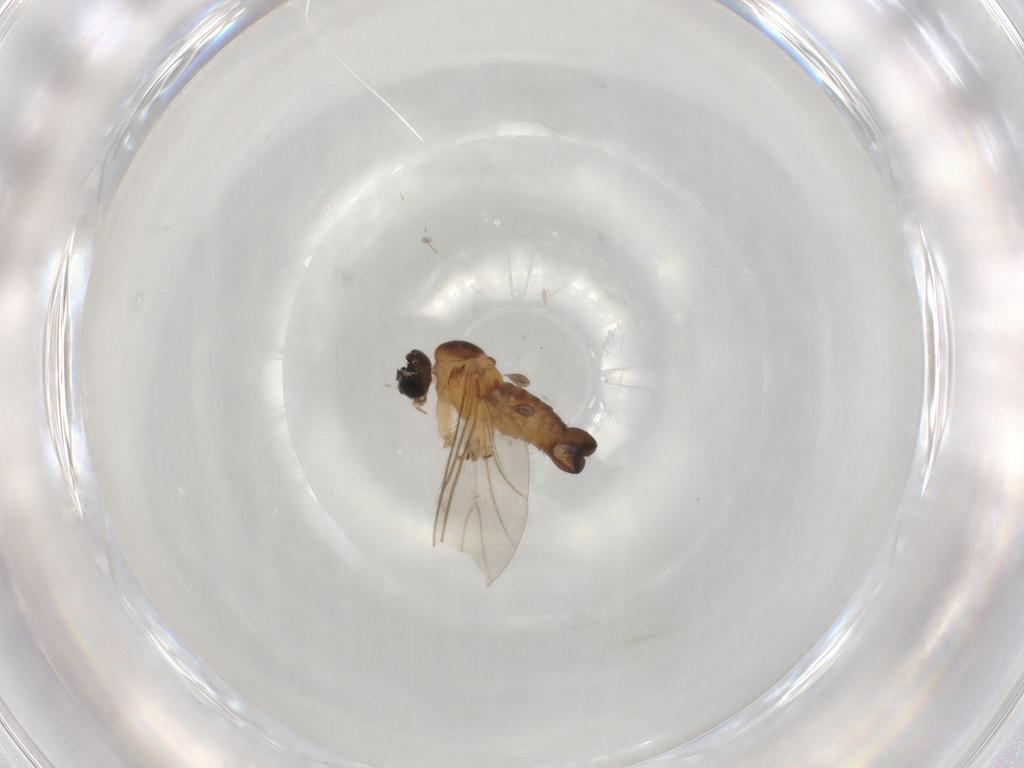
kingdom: Animalia
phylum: Arthropoda
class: Insecta
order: Diptera
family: Sciaridae
